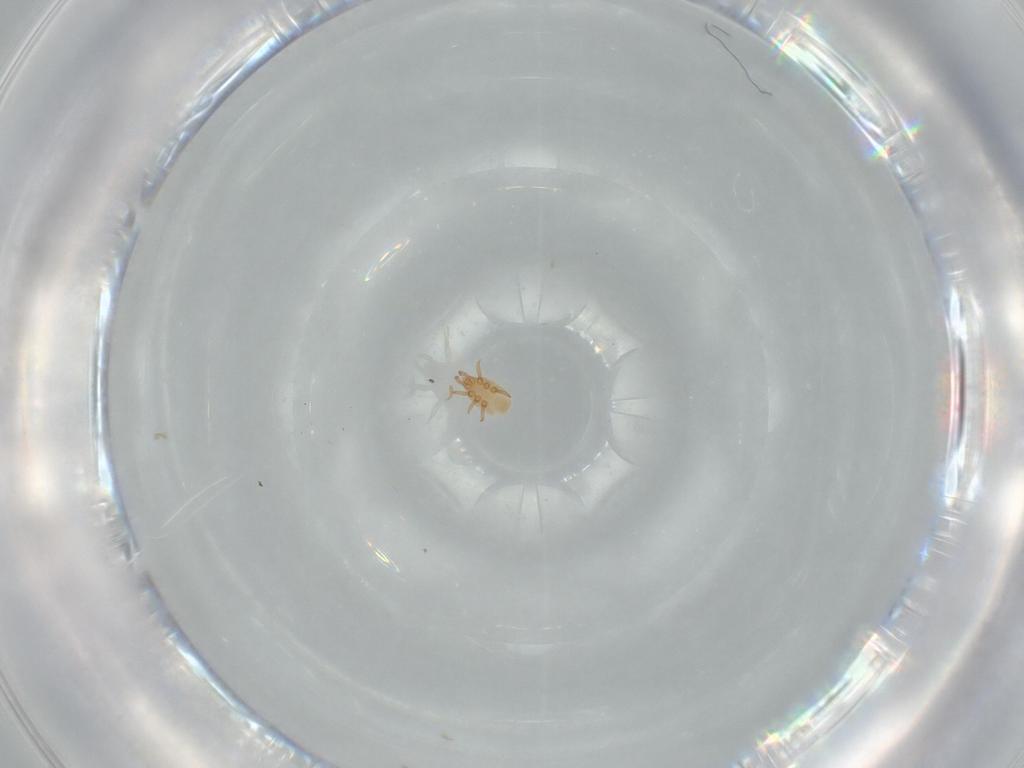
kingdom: Animalia
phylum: Arthropoda
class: Arachnida
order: Mesostigmata
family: Dinychidae
